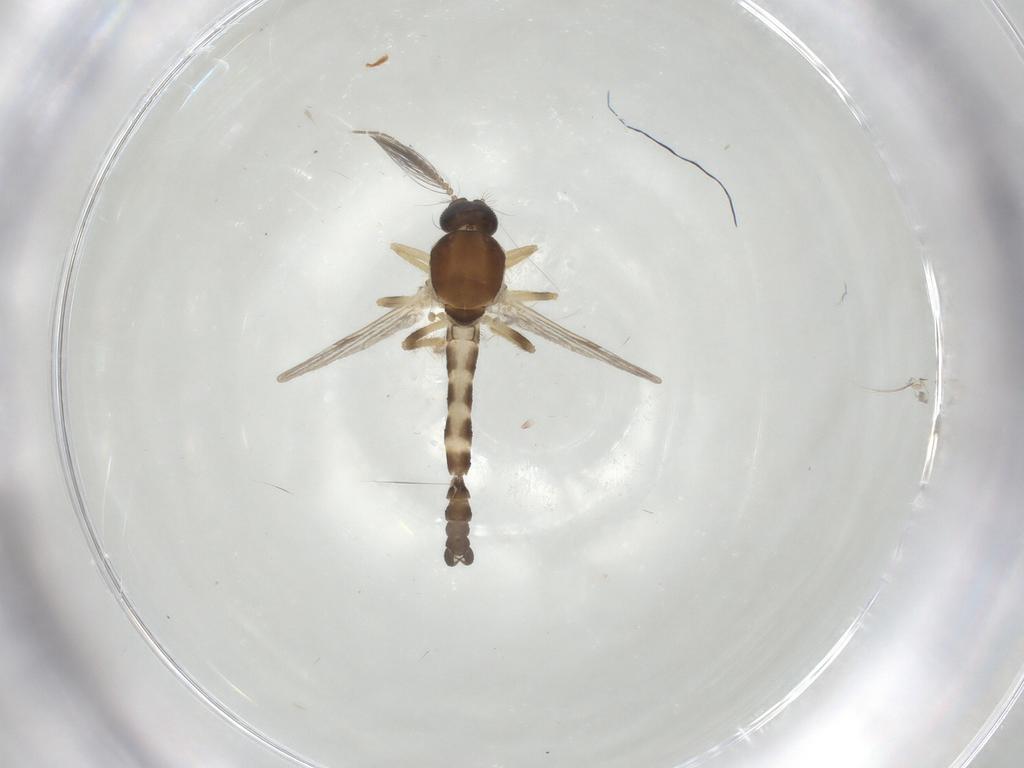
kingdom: Animalia
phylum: Arthropoda
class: Insecta
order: Diptera
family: Ceratopogonidae
